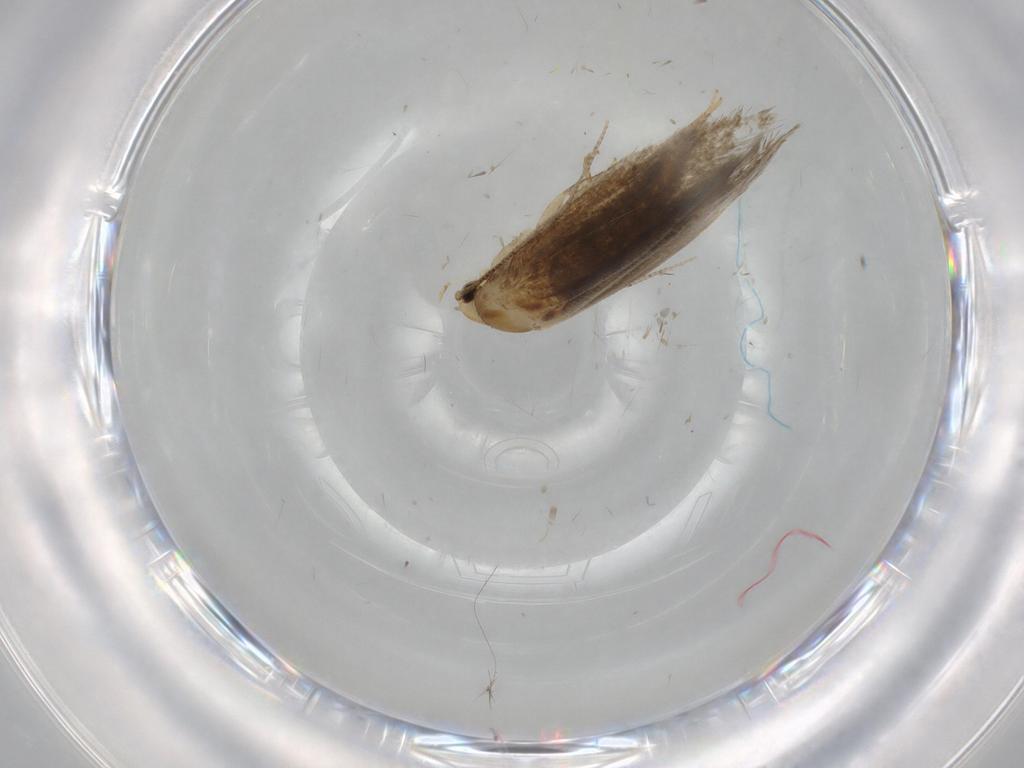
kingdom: Animalia
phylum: Arthropoda
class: Insecta
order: Lepidoptera
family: Tineidae
